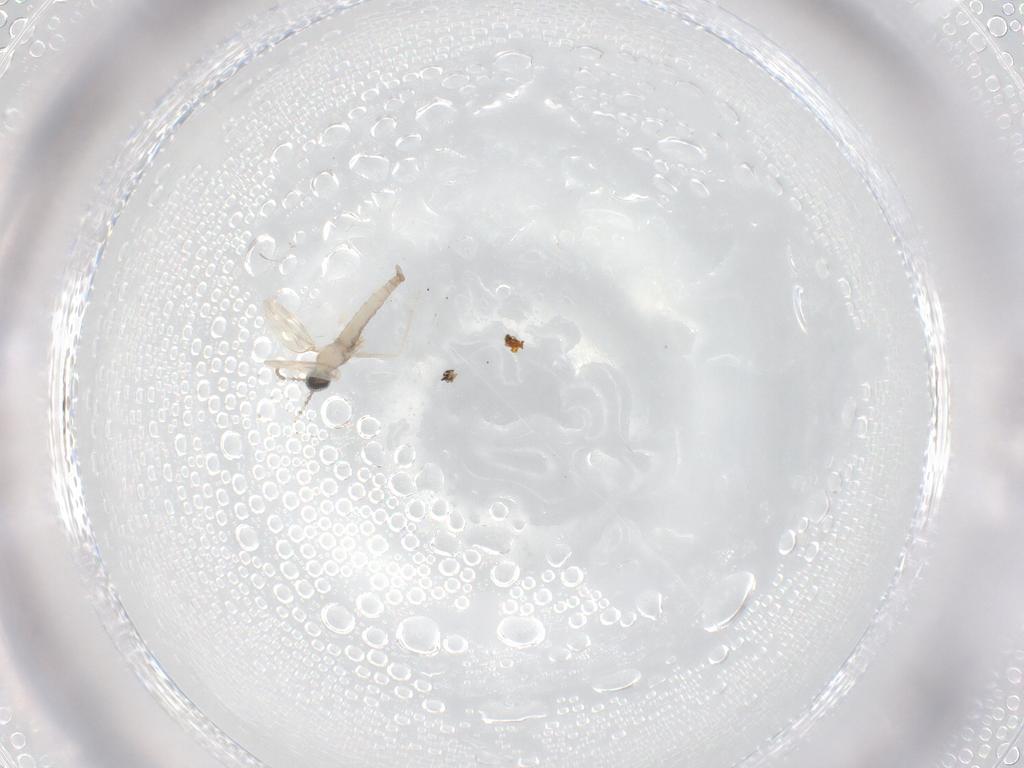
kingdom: Animalia
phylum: Arthropoda
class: Insecta
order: Diptera
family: Cecidomyiidae
